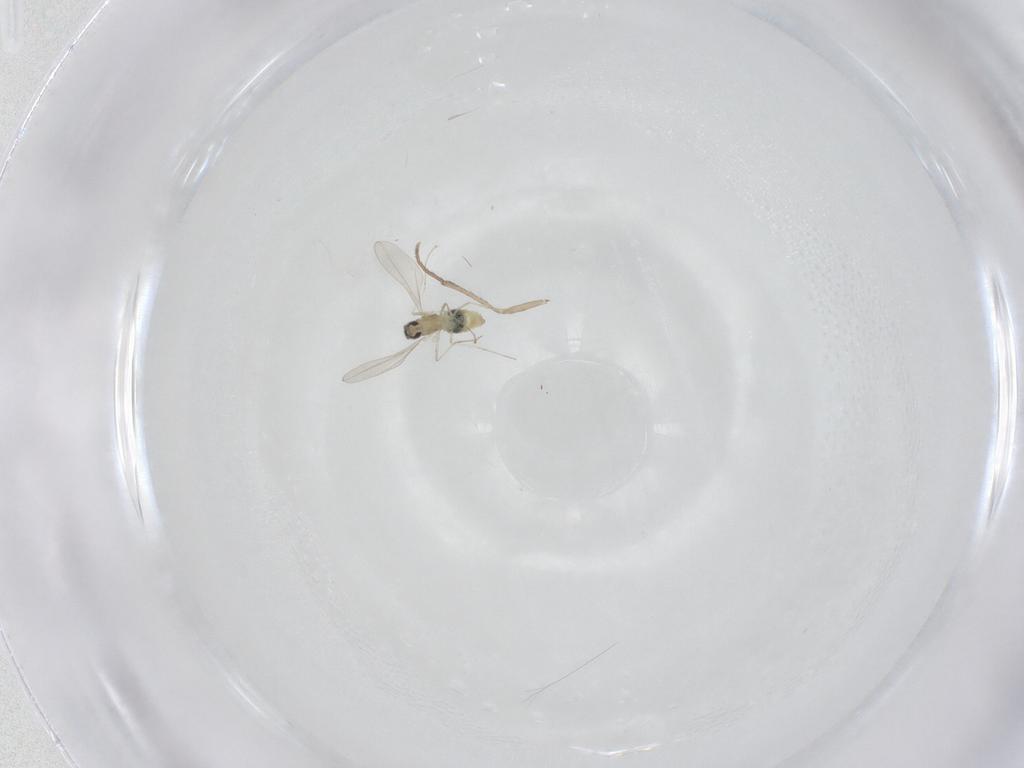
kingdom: Animalia
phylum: Arthropoda
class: Insecta
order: Diptera
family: Cecidomyiidae
